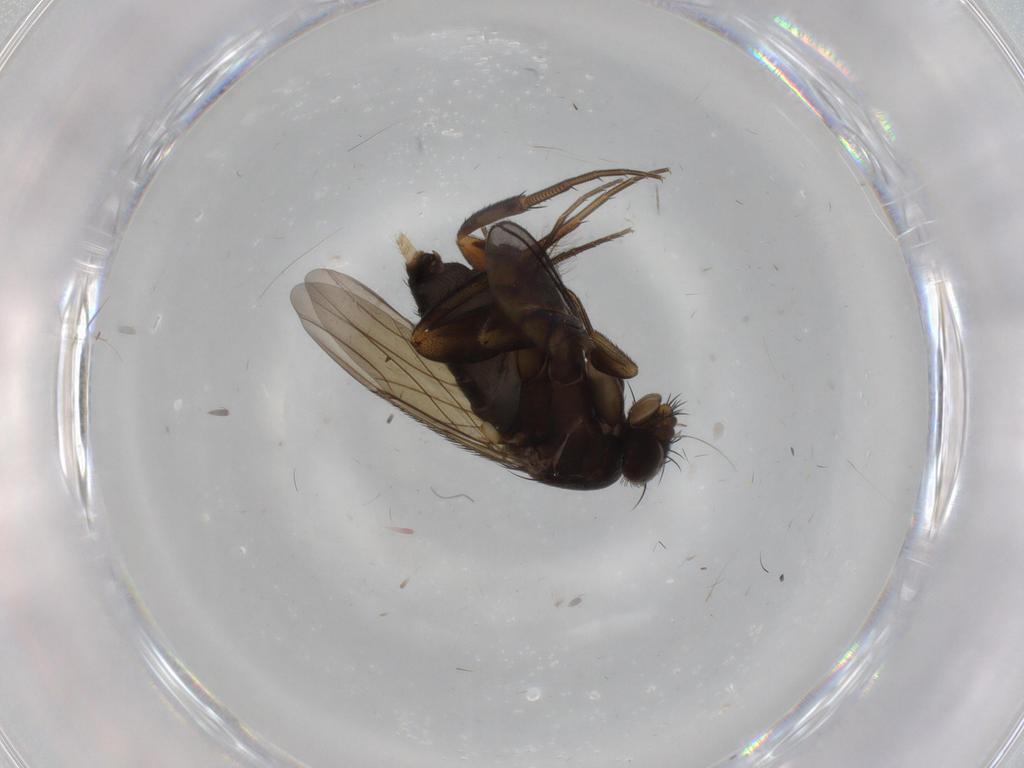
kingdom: Animalia
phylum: Arthropoda
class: Insecta
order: Diptera
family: Phoridae
